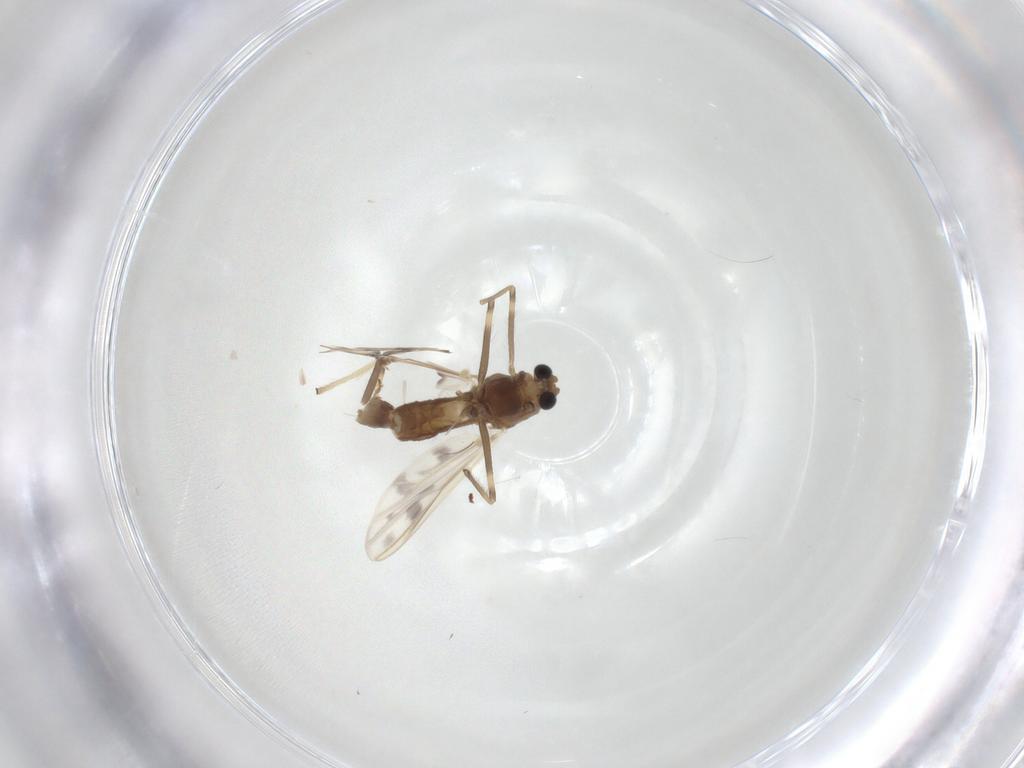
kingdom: Animalia
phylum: Arthropoda
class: Insecta
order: Diptera
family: Chironomidae
